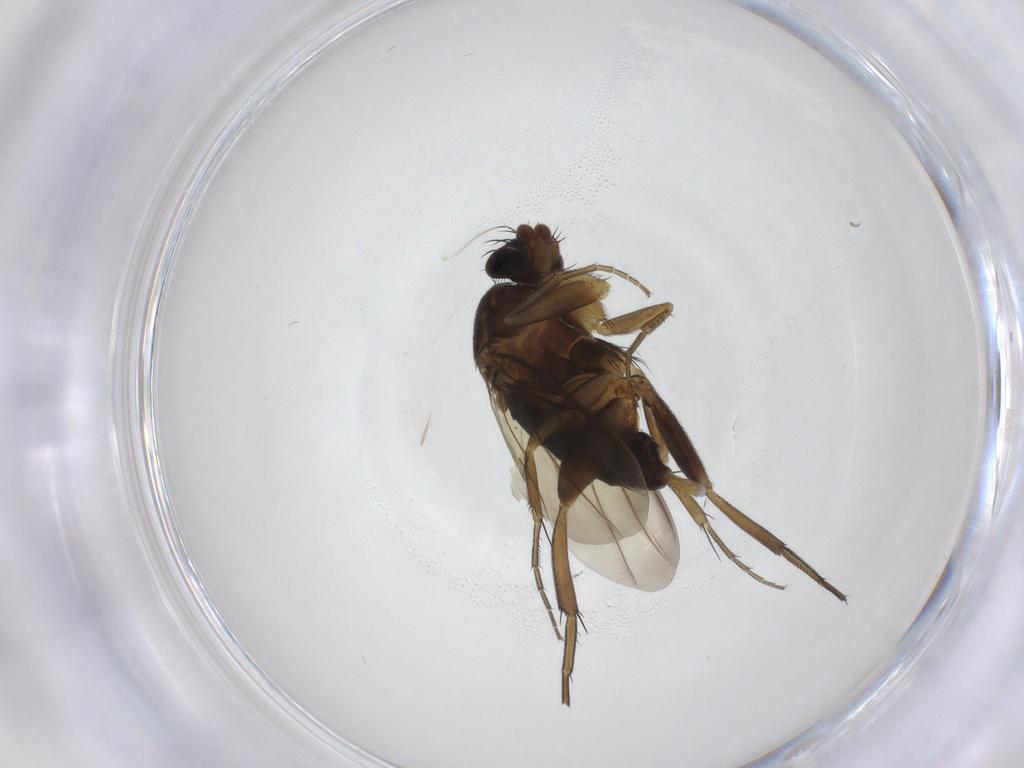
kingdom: Animalia
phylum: Arthropoda
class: Insecta
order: Diptera
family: Phoridae
